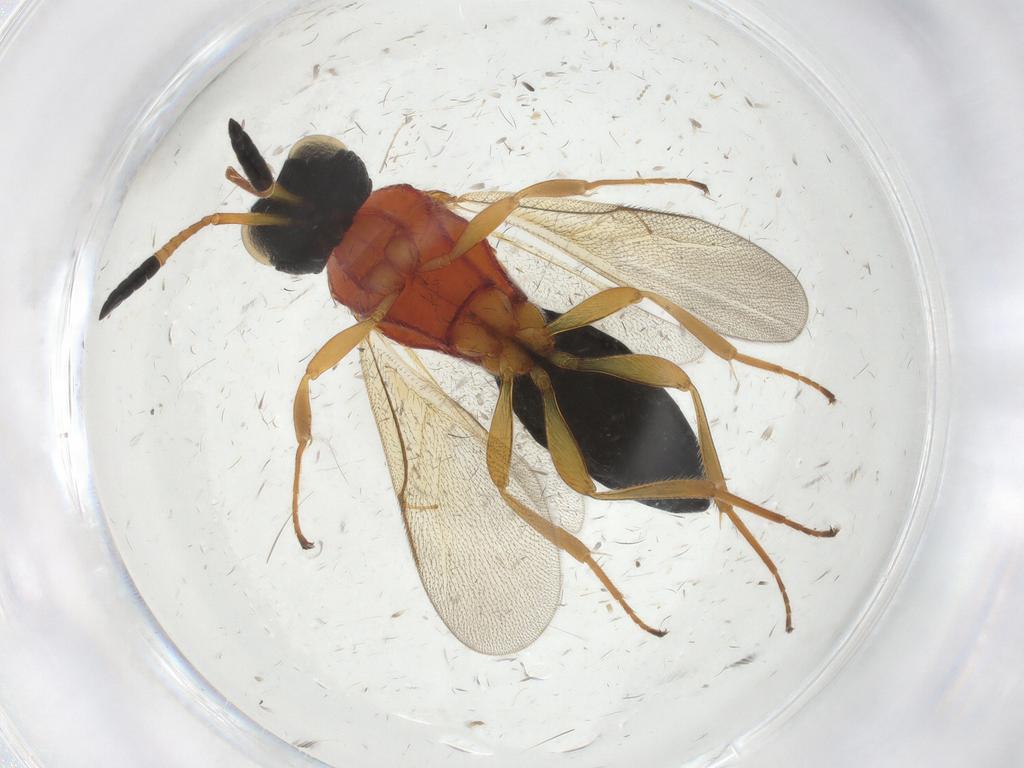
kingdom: Animalia
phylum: Arthropoda
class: Insecta
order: Hymenoptera
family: Scelionidae
